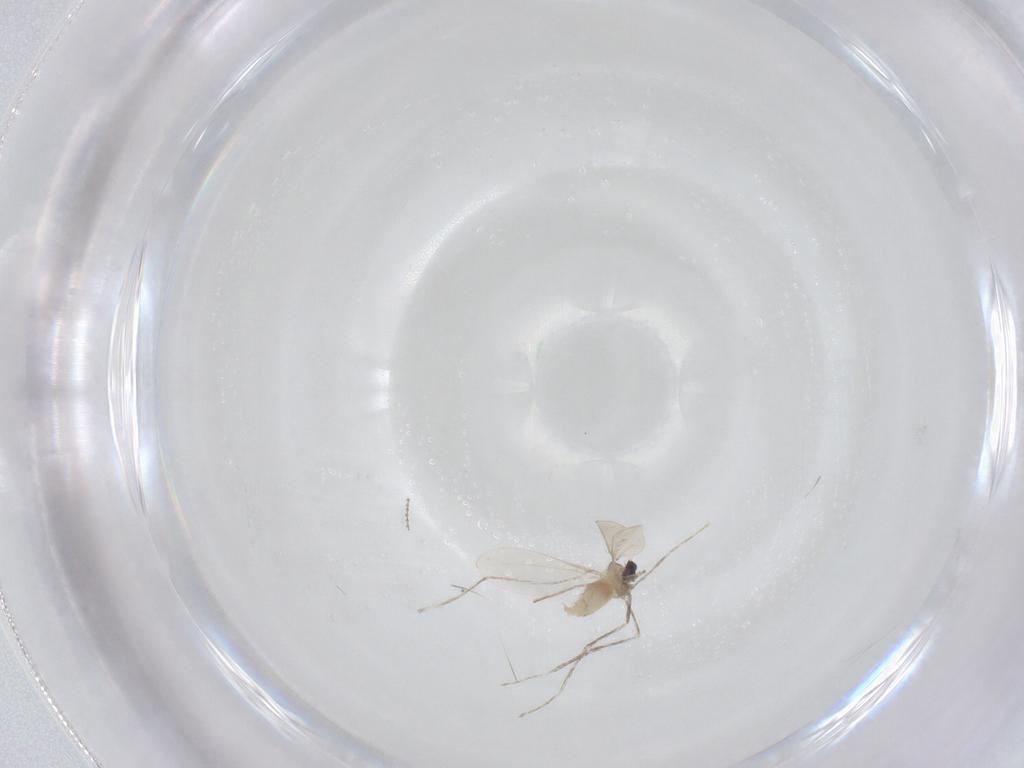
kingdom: Animalia
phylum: Arthropoda
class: Insecta
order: Diptera
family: Cecidomyiidae
